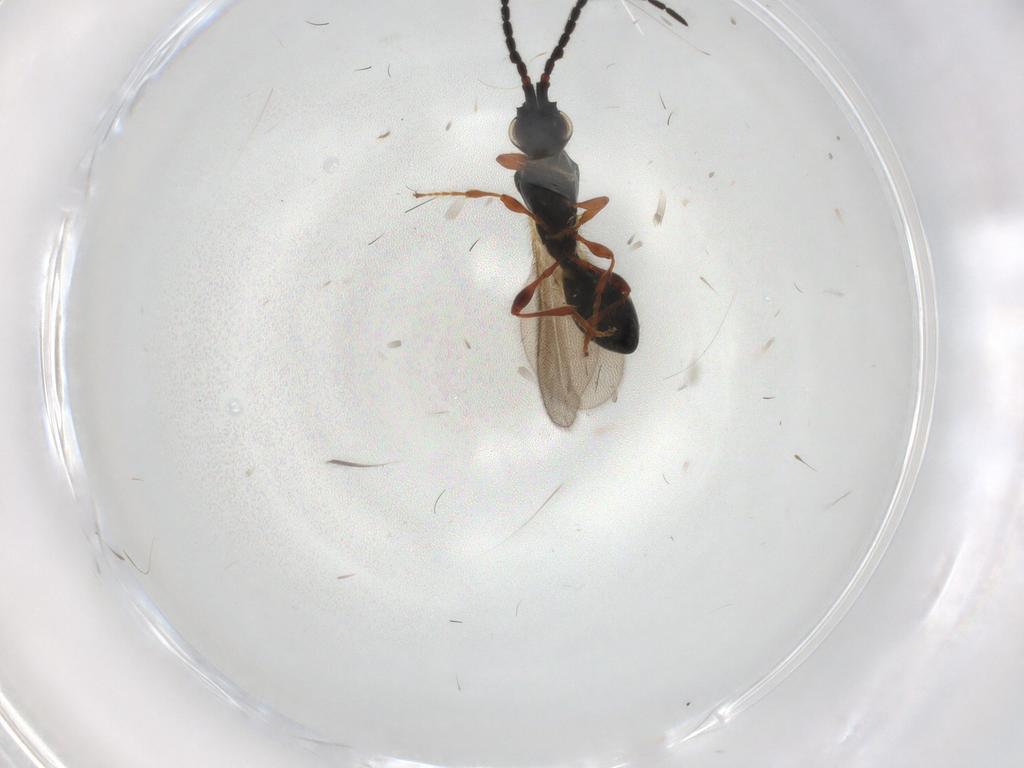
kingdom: Animalia
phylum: Arthropoda
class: Insecta
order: Hymenoptera
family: Diapriidae
